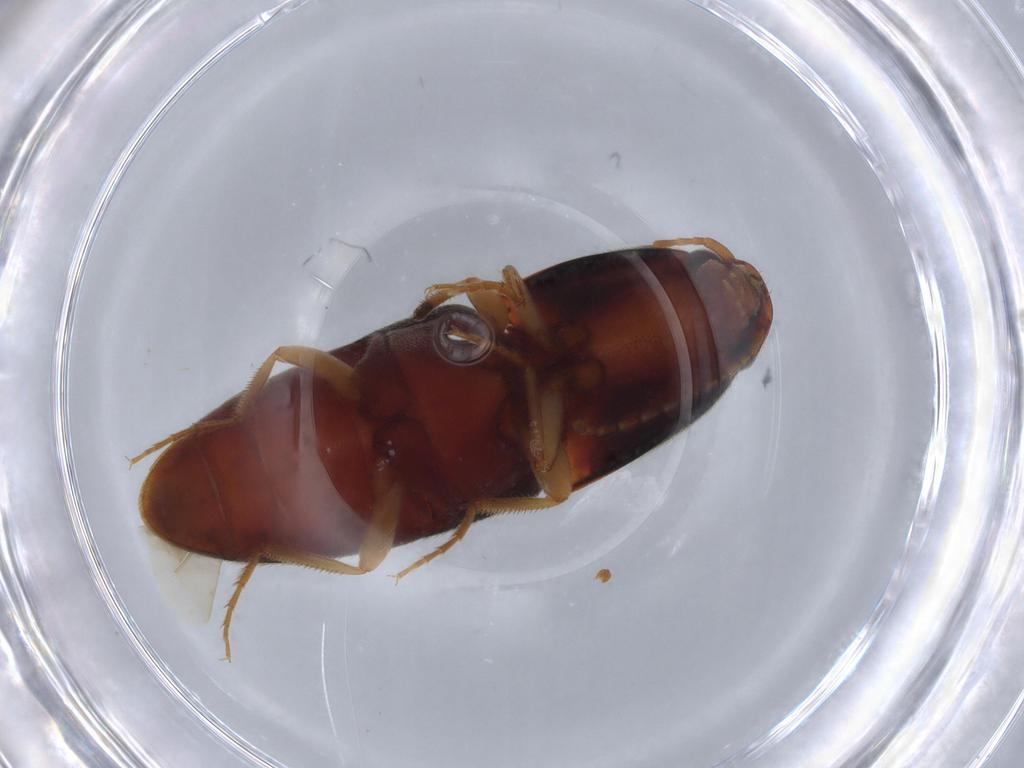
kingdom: Animalia
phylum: Arthropoda
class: Insecta
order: Coleoptera
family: Elateridae
